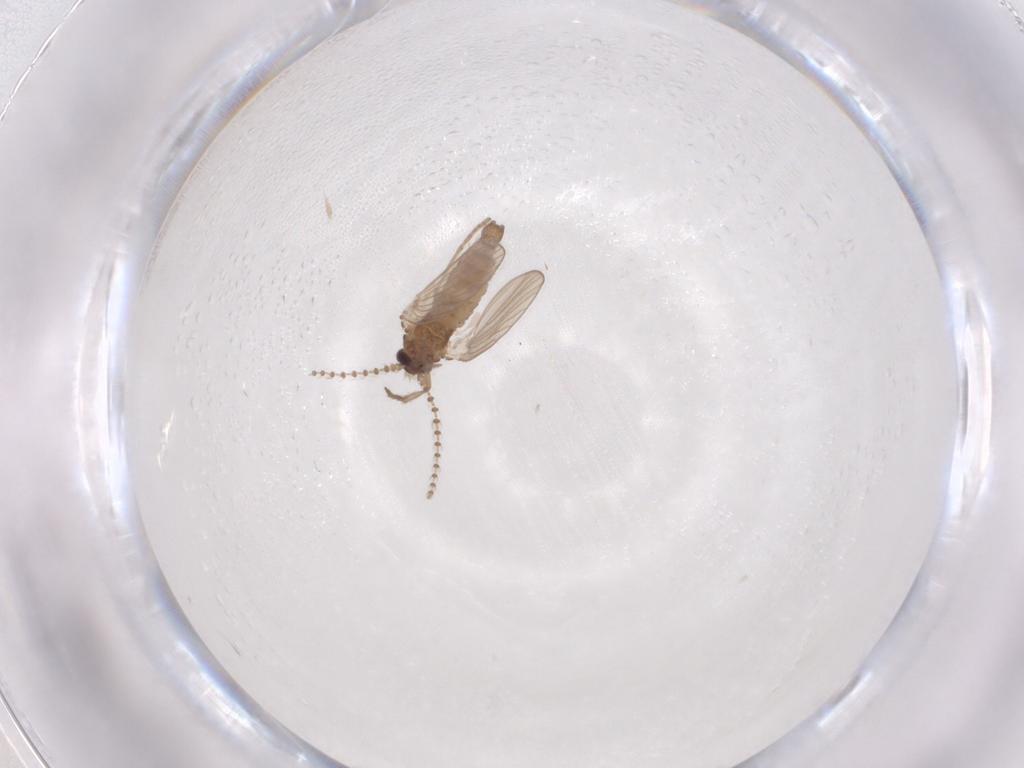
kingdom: Animalia
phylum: Arthropoda
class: Insecta
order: Diptera
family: Psychodidae
